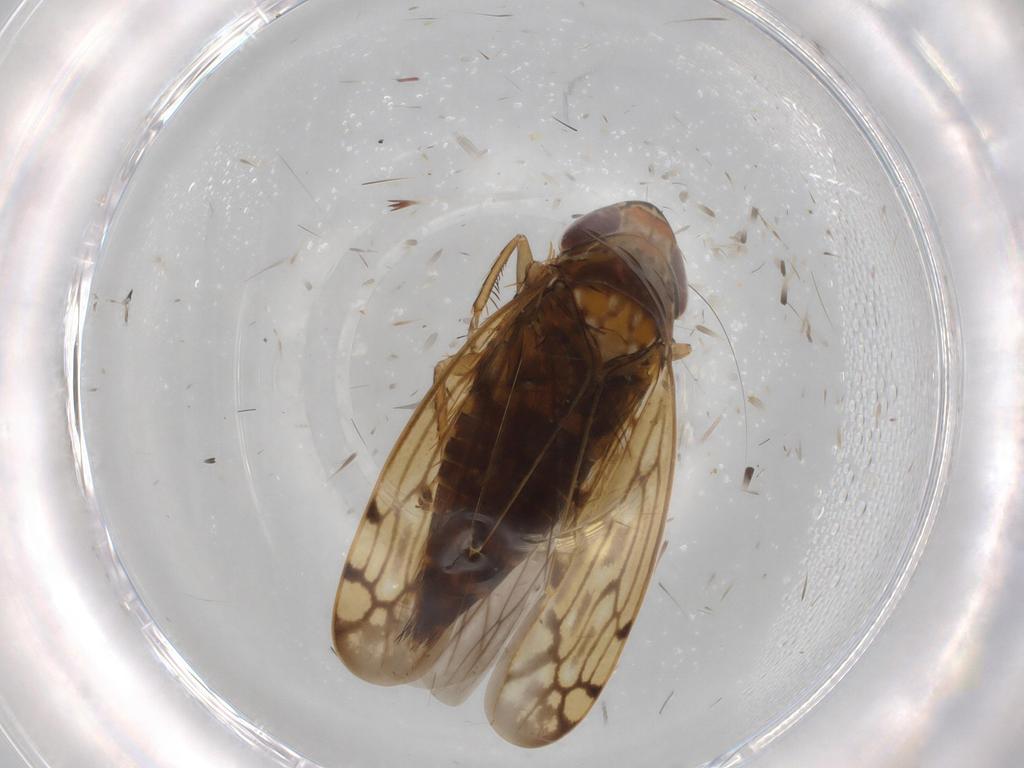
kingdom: Animalia
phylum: Arthropoda
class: Insecta
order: Hemiptera
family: Cicadellidae
